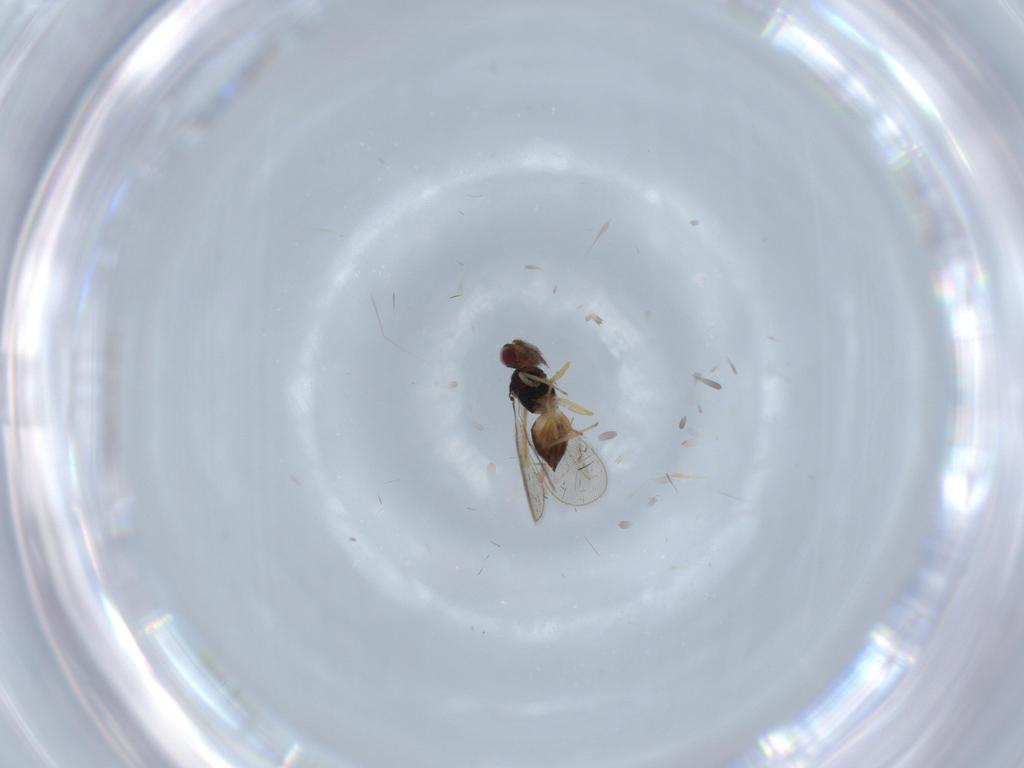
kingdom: Animalia
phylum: Arthropoda
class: Insecta
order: Hymenoptera
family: Eulophidae
